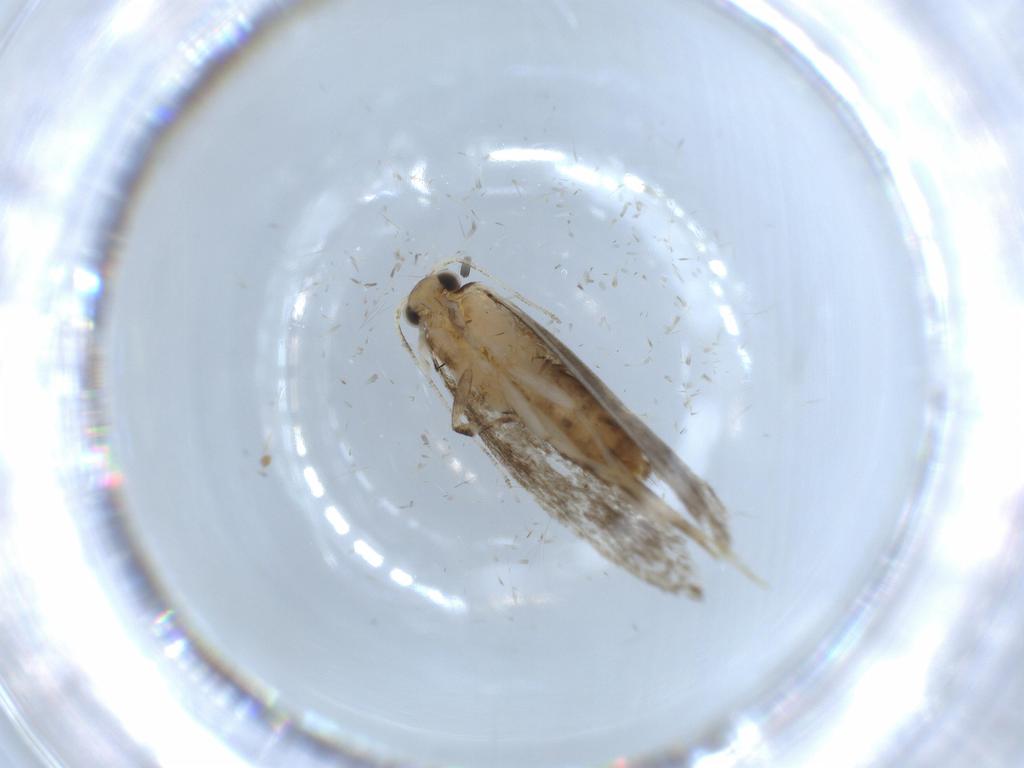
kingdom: Animalia
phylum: Arthropoda
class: Insecta
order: Lepidoptera
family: Tineidae
